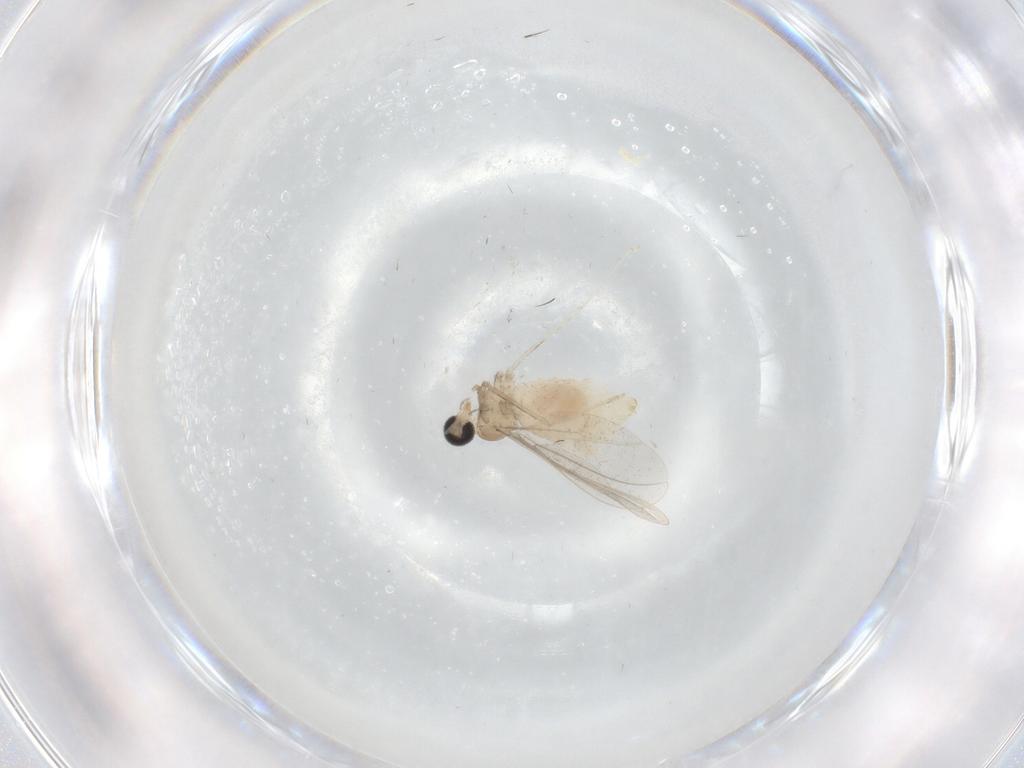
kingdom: Animalia
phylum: Arthropoda
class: Insecta
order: Diptera
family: Cecidomyiidae
